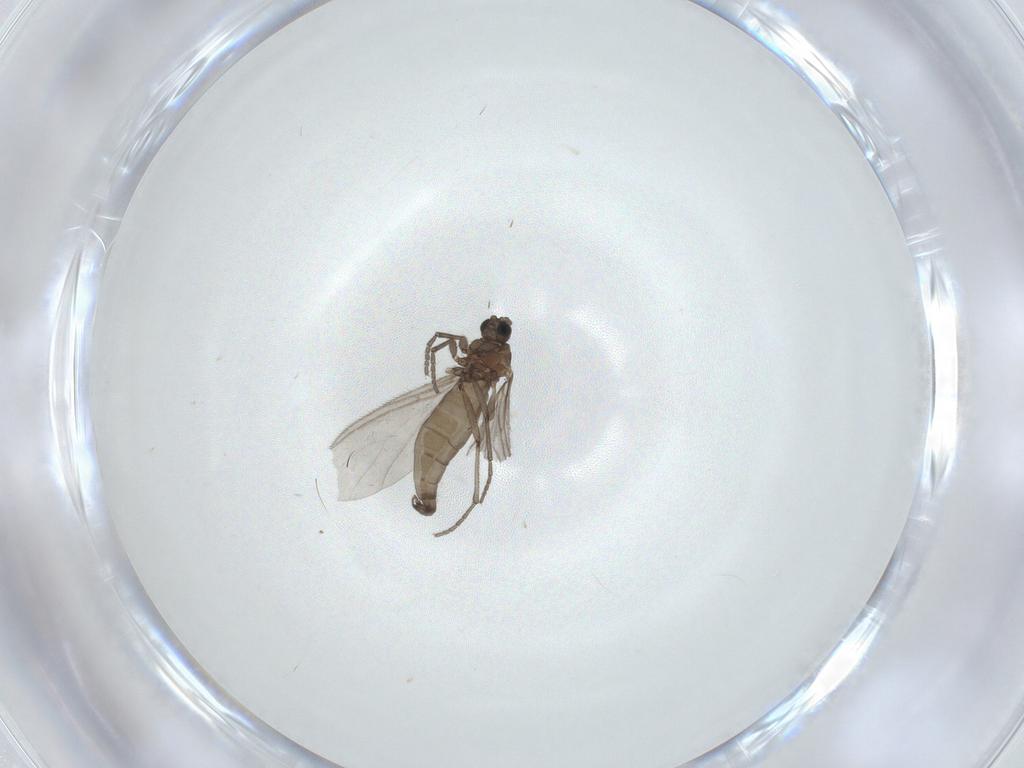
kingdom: Animalia
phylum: Arthropoda
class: Insecta
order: Diptera
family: Sciaridae
